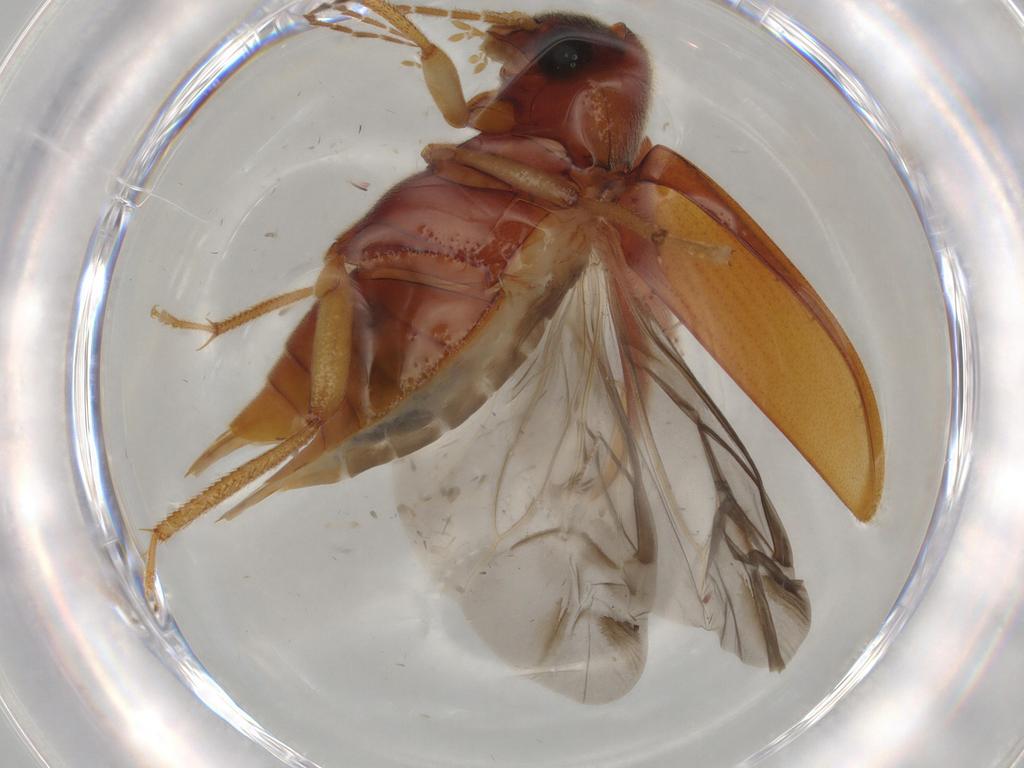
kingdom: Animalia
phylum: Arthropoda
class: Insecta
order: Coleoptera
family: Ptilodactylidae
